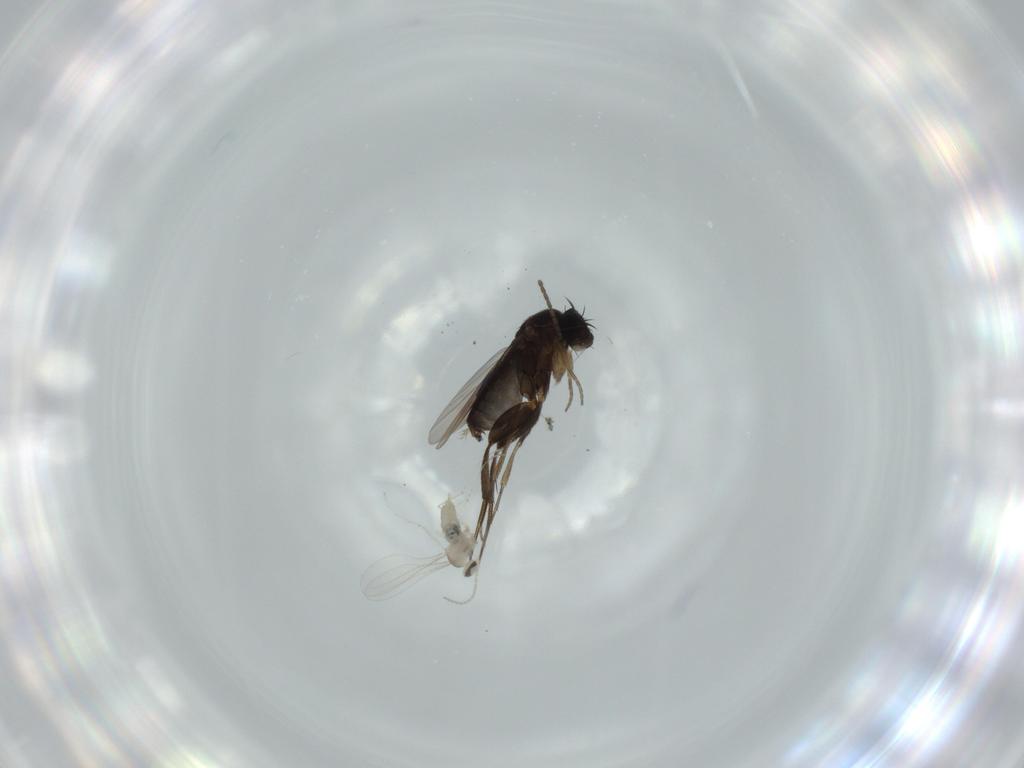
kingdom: Animalia
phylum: Arthropoda
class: Insecta
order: Diptera
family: Phoridae
